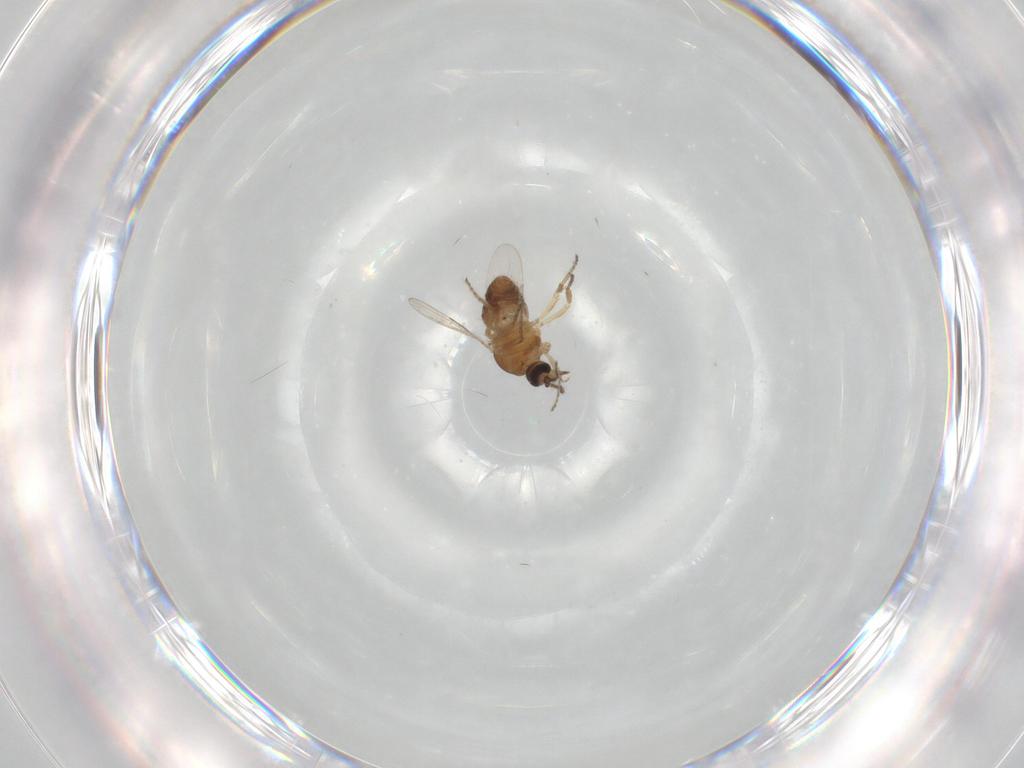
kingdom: Animalia
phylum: Arthropoda
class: Insecta
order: Diptera
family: Ceratopogonidae
